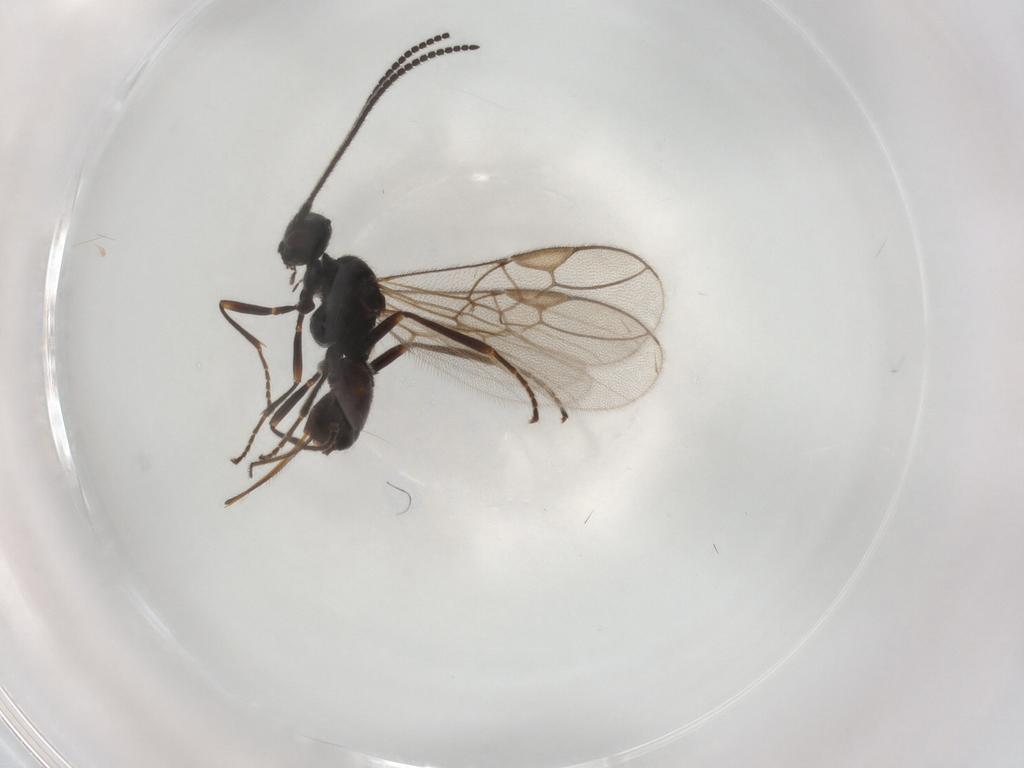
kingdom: Animalia
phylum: Arthropoda
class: Insecta
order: Hymenoptera
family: Braconidae
